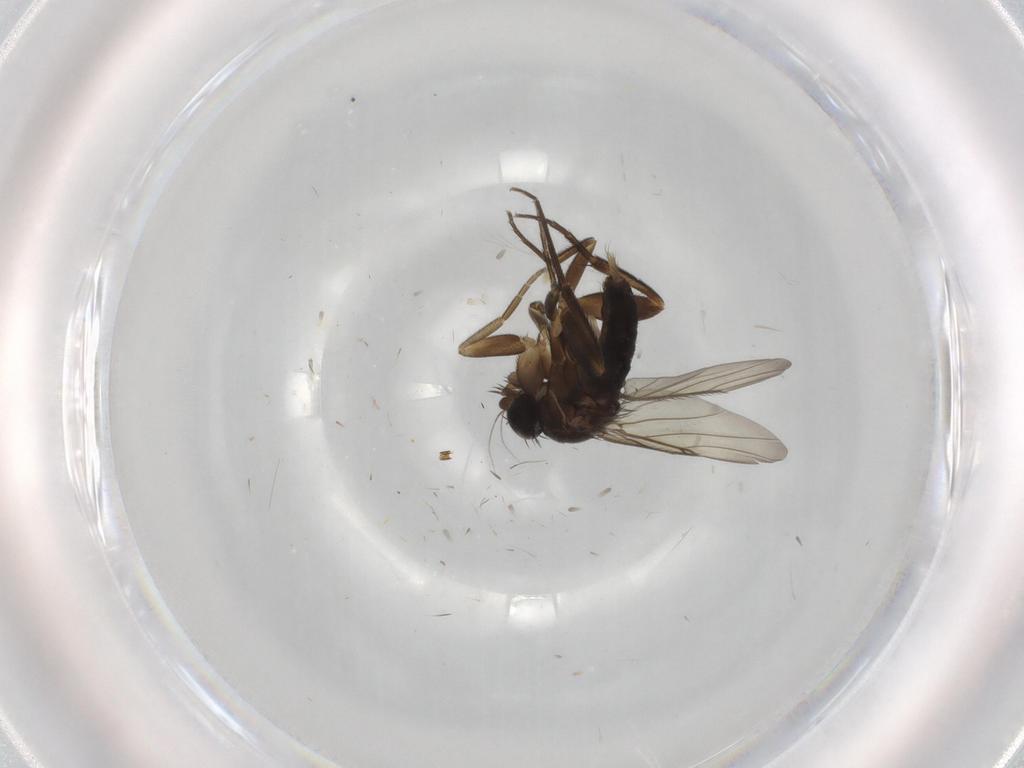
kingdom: Animalia
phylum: Arthropoda
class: Insecta
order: Diptera
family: Phoridae
